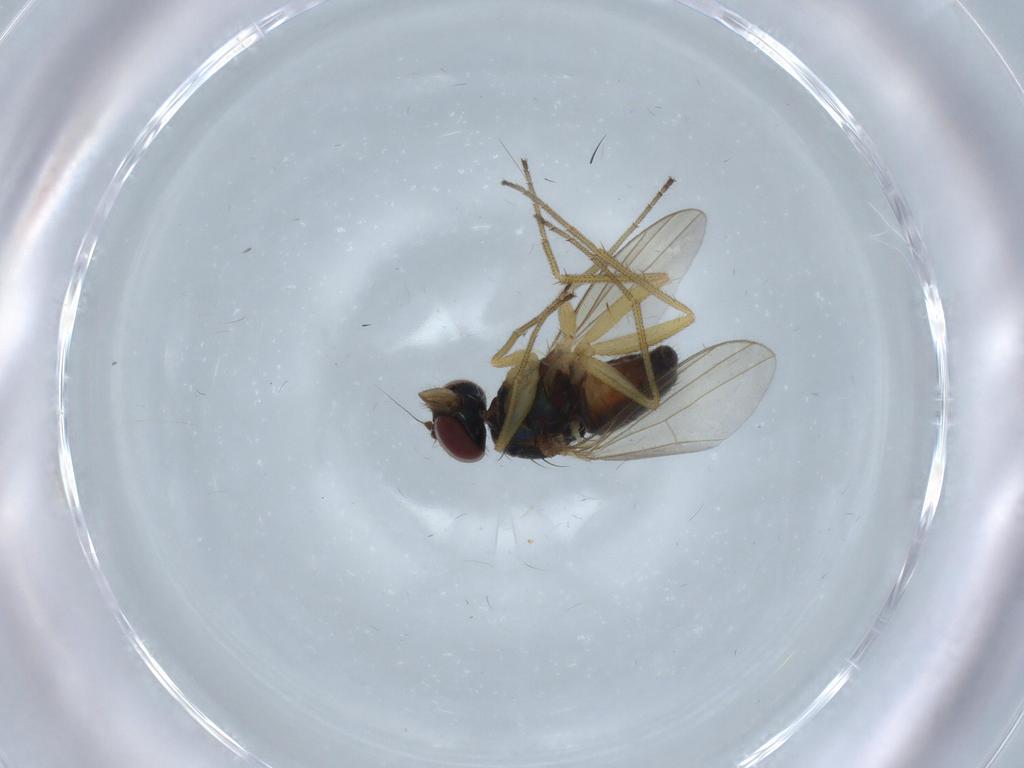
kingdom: Animalia
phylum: Arthropoda
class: Insecta
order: Diptera
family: Dolichopodidae
